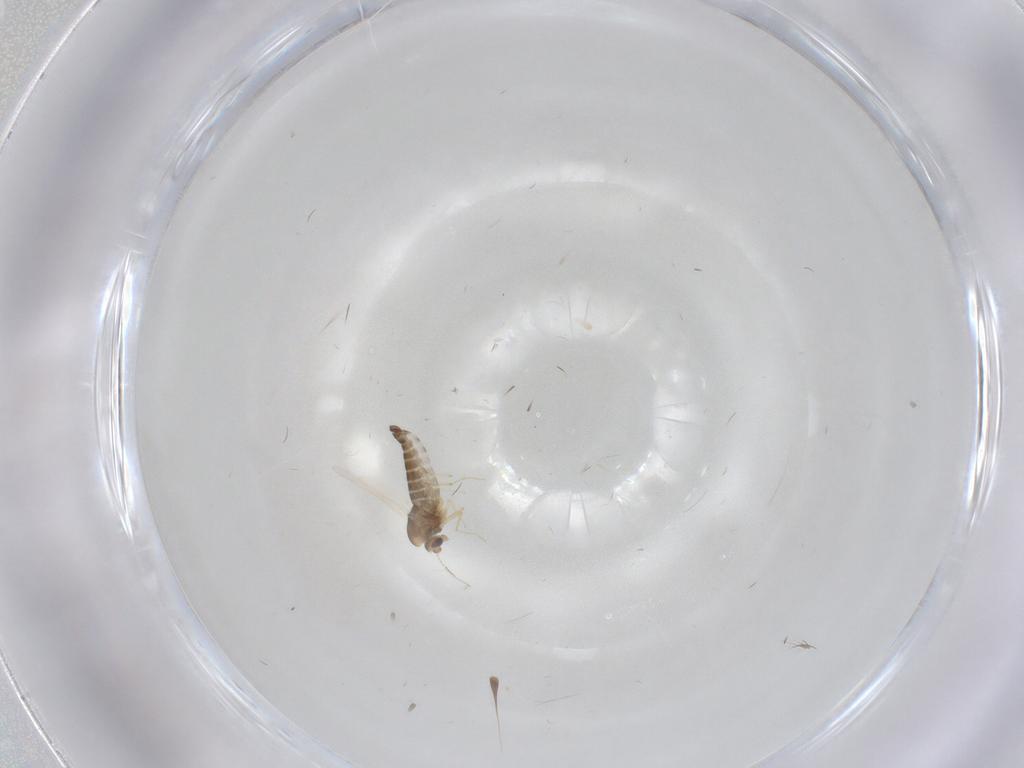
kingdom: Animalia
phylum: Arthropoda
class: Insecta
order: Diptera
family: Chironomidae
